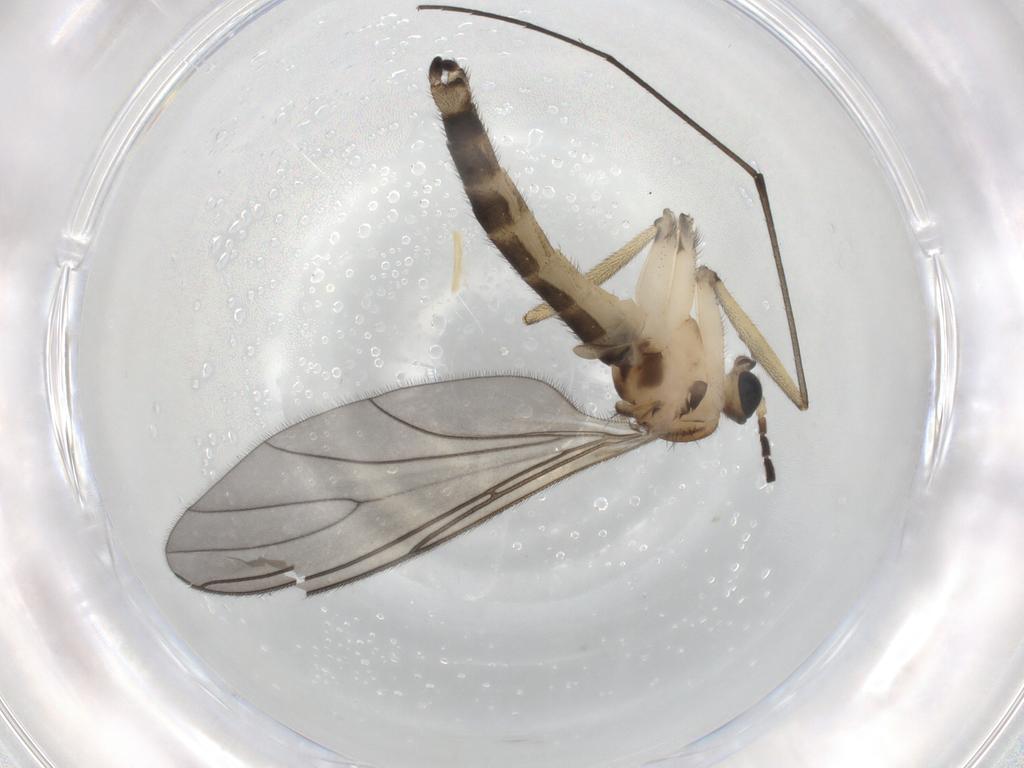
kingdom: Animalia
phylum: Arthropoda
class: Insecta
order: Diptera
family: Sciaridae
